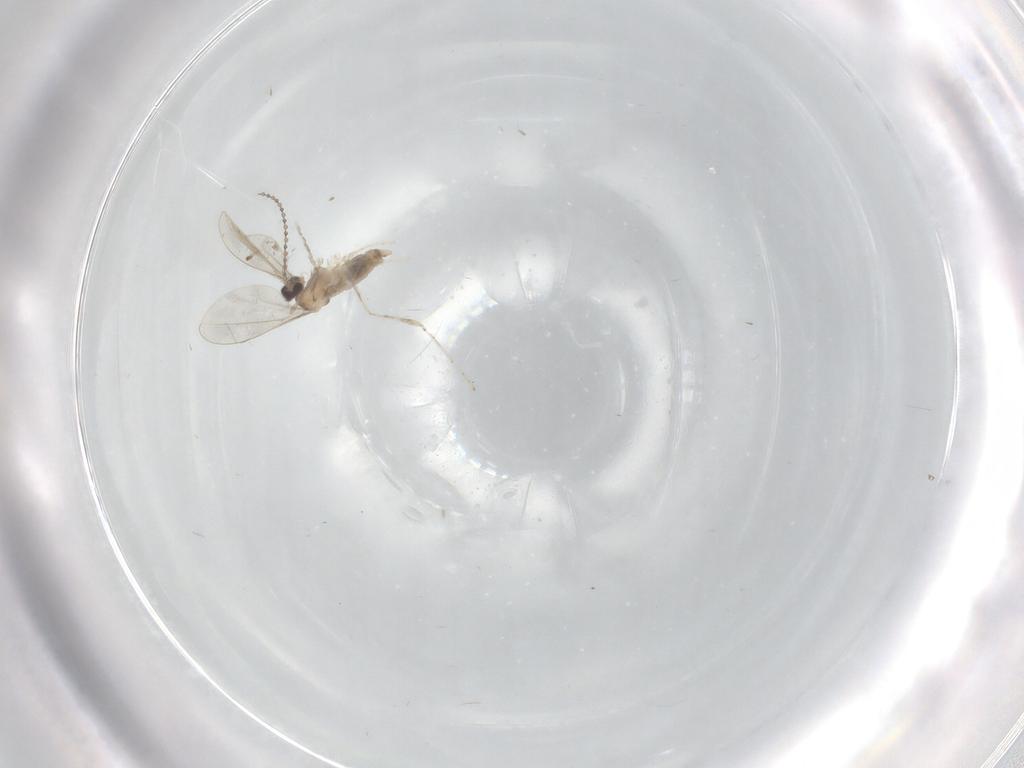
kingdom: Animalia
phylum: Arthropoda
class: Insecta
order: Diptera
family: Cecidomyiidae
